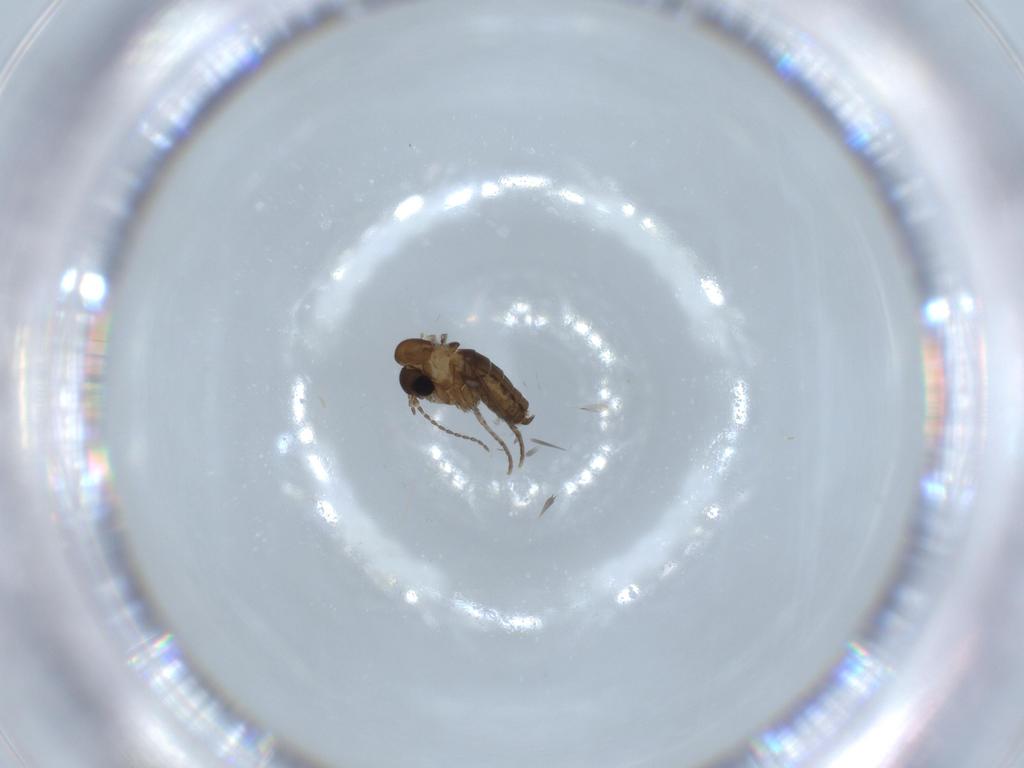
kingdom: Animalia
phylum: Arthropoda
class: Insecta
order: Diptera
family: Psychodidae
